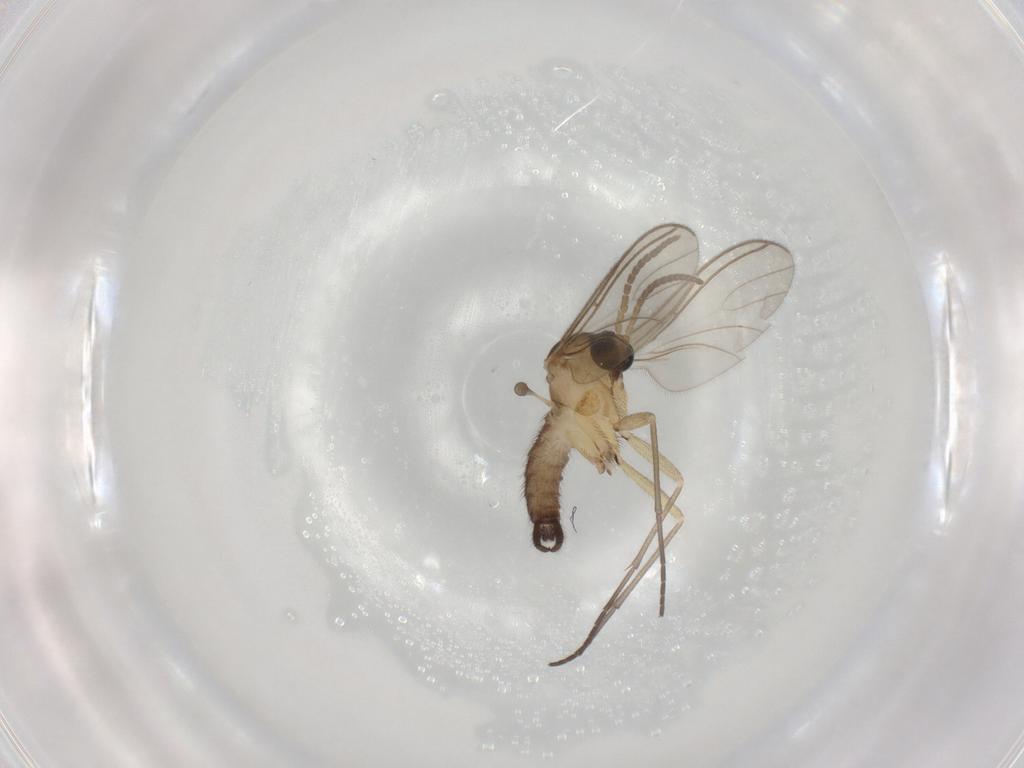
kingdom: Animalia
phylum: Arthropoda
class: Insecta
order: Diptera
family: Sciaridae
